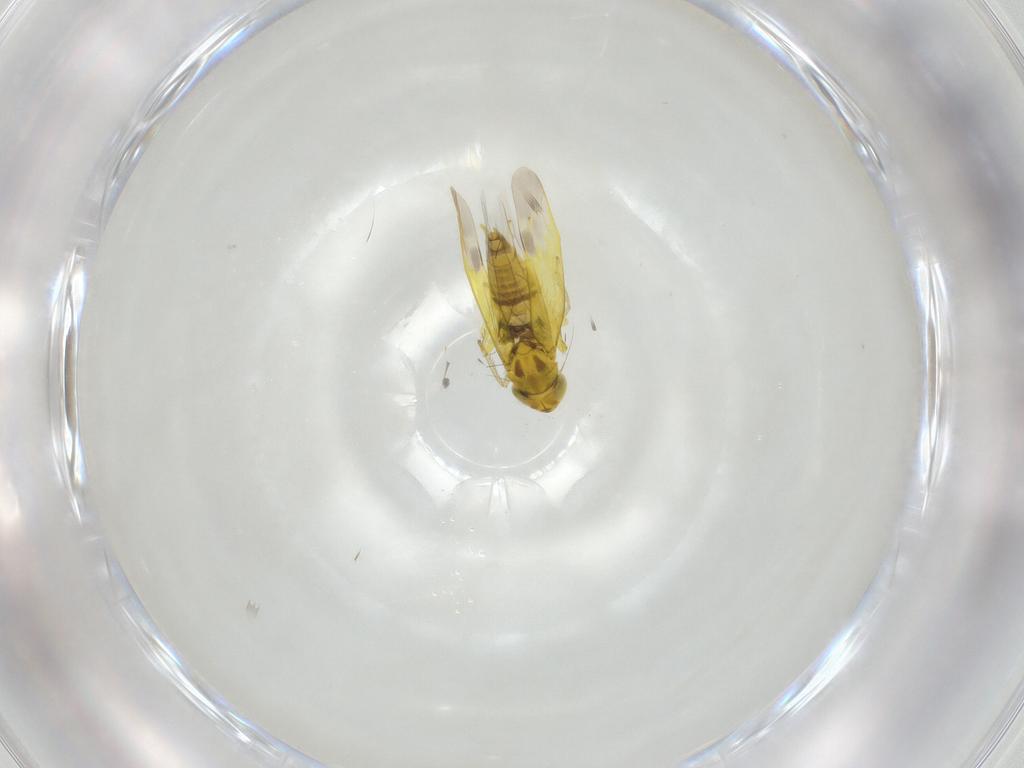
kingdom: Animalia
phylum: Arthropoda
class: Insecta
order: Hemiptera
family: Cicadellidae
